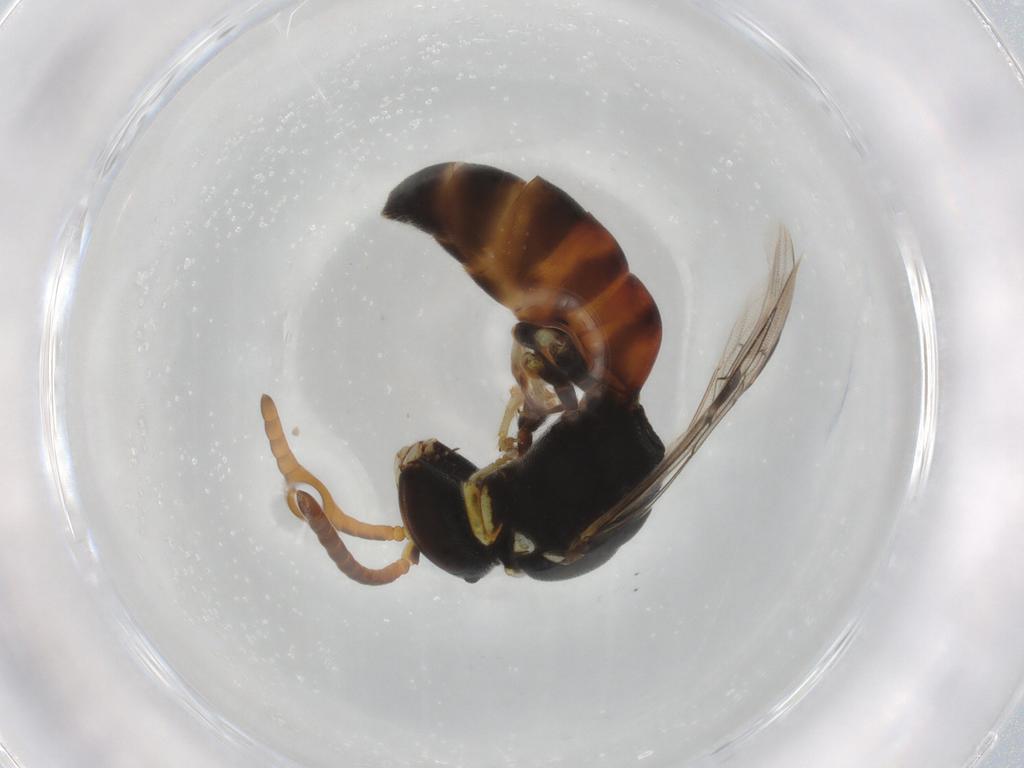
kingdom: Animalia
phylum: Arthropoda
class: Insecta
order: Hymenoptera
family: Colletidae
